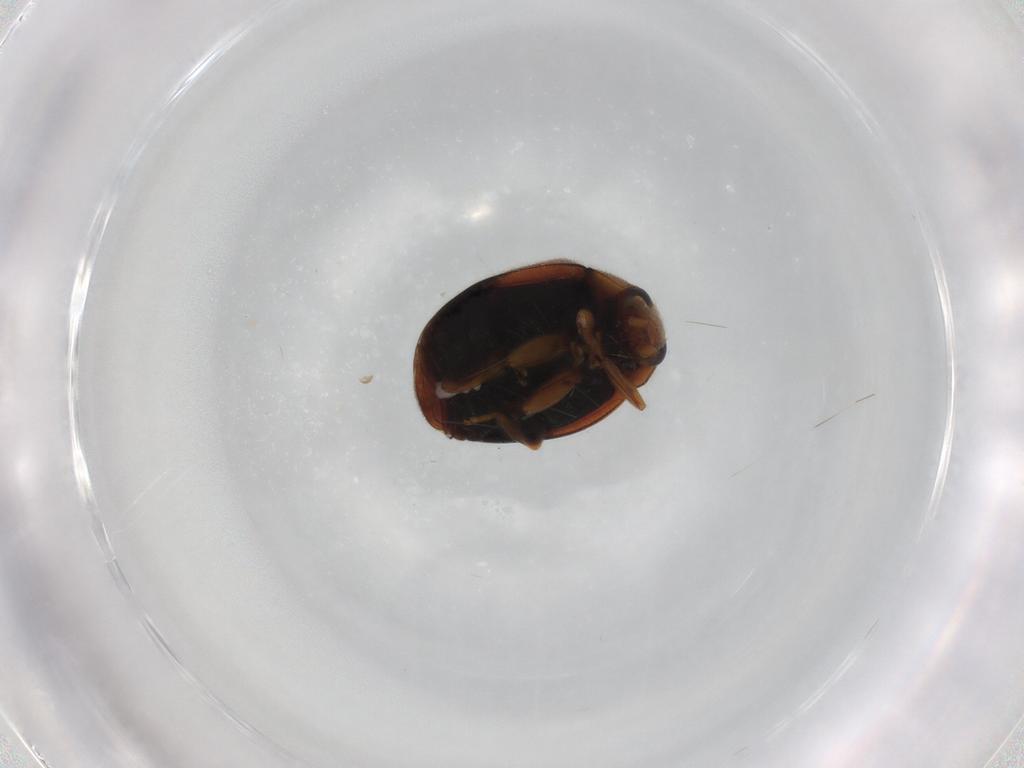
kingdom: Animalia
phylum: Arthropoda
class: Insecta
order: Coleoptera
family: Coccinellidae
